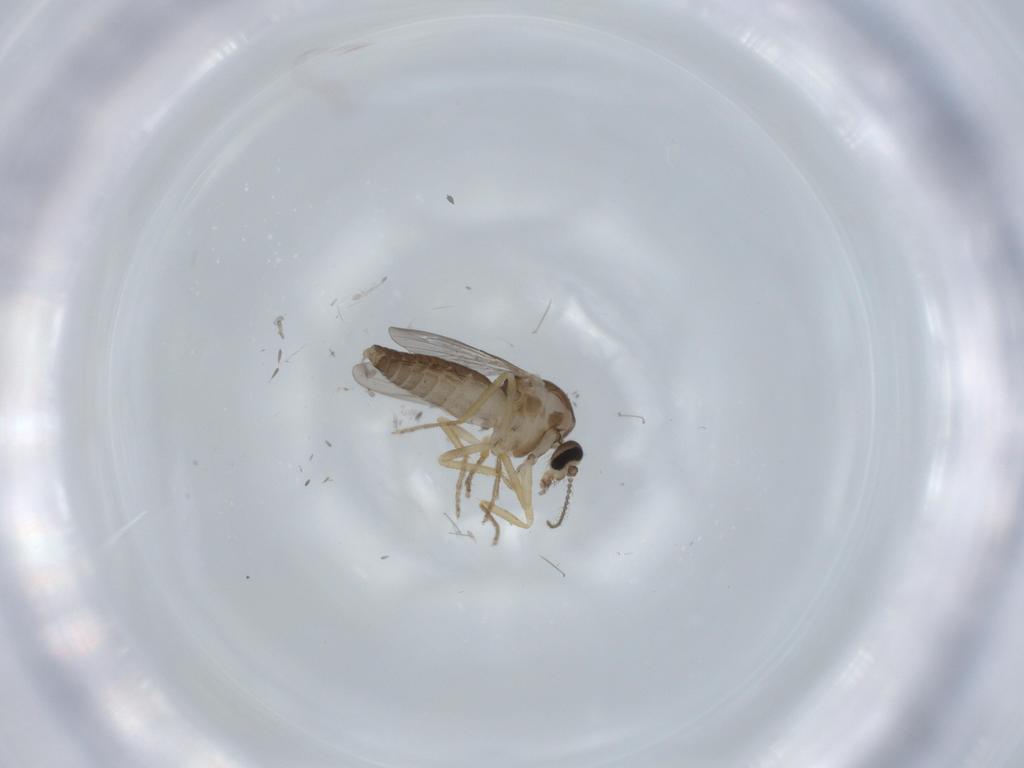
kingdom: Animalia
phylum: Arthropoda
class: Insecta
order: Diptera
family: Ceratopogonidae
